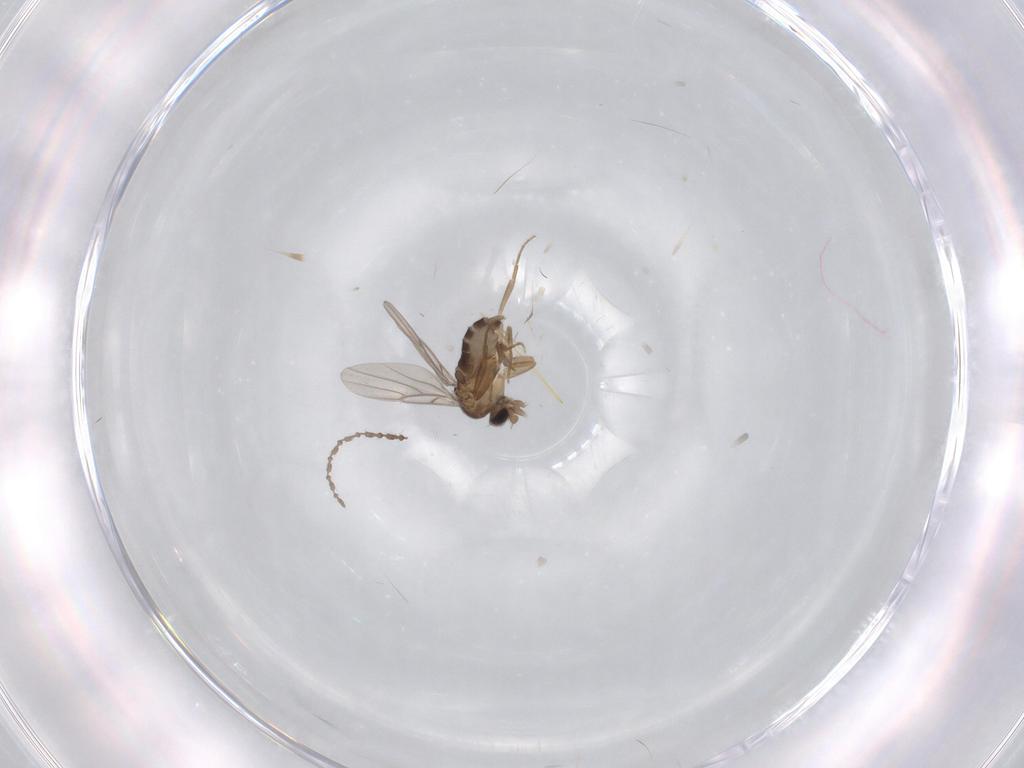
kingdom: Animalia
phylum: Arthropoda
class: Insecta
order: Diptera
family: Cecidomyiidae
